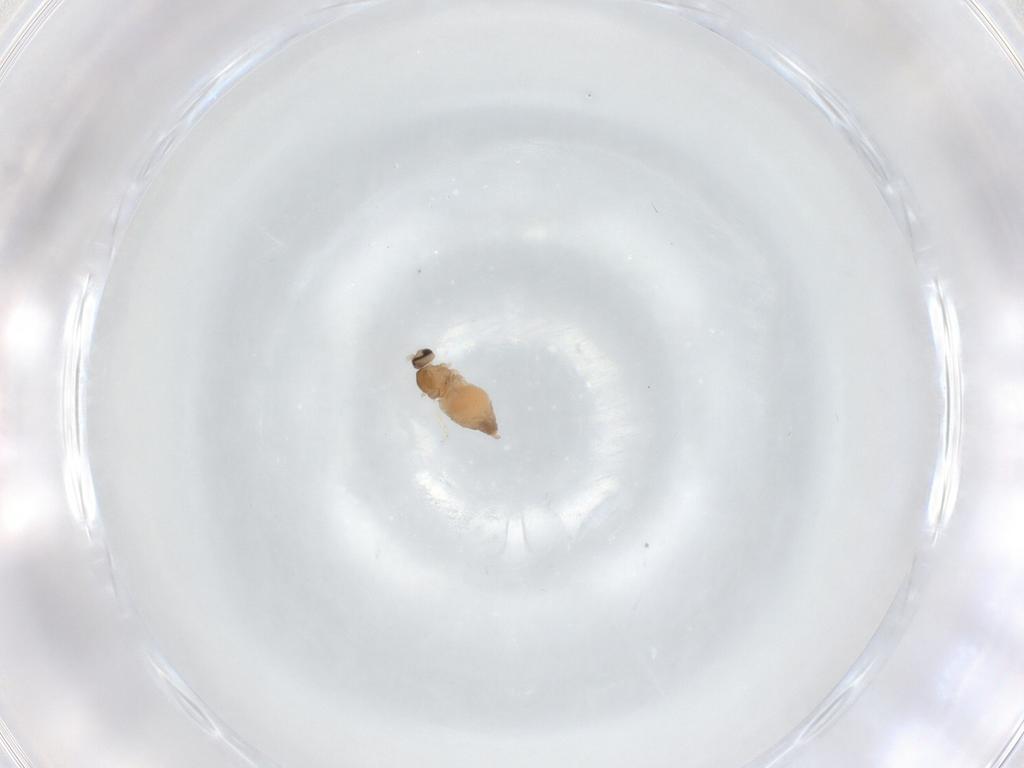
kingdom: Animalia
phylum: Arthropoda
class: Insecta
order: Diptera
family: Cecidomyiidae
